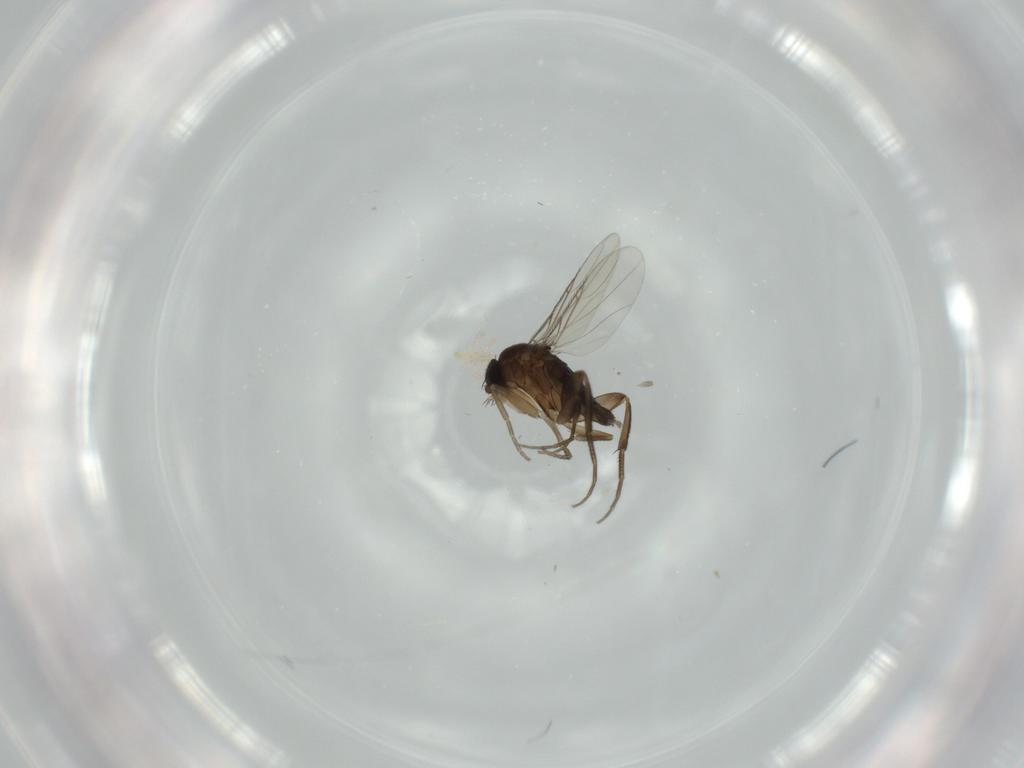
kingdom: Animalia
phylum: Arthropoda
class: Insecta
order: Diptera
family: Phoridae
